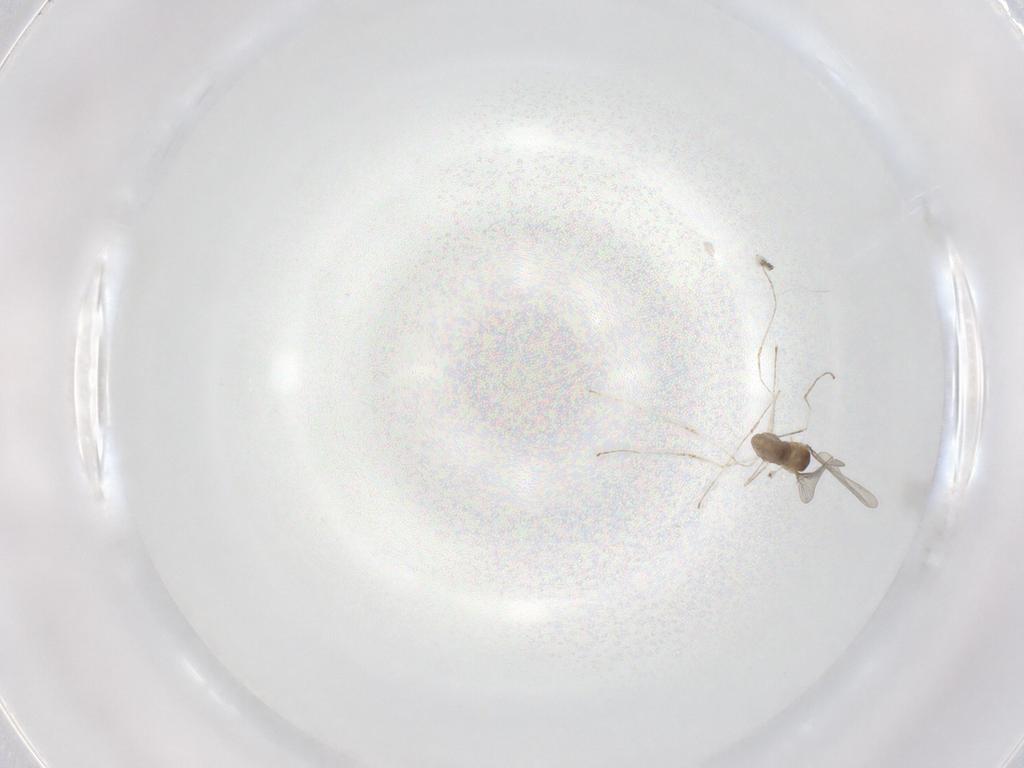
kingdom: Animalia
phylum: Arthropoda
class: Insecta
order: Diptera
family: Cecidomyiidae
